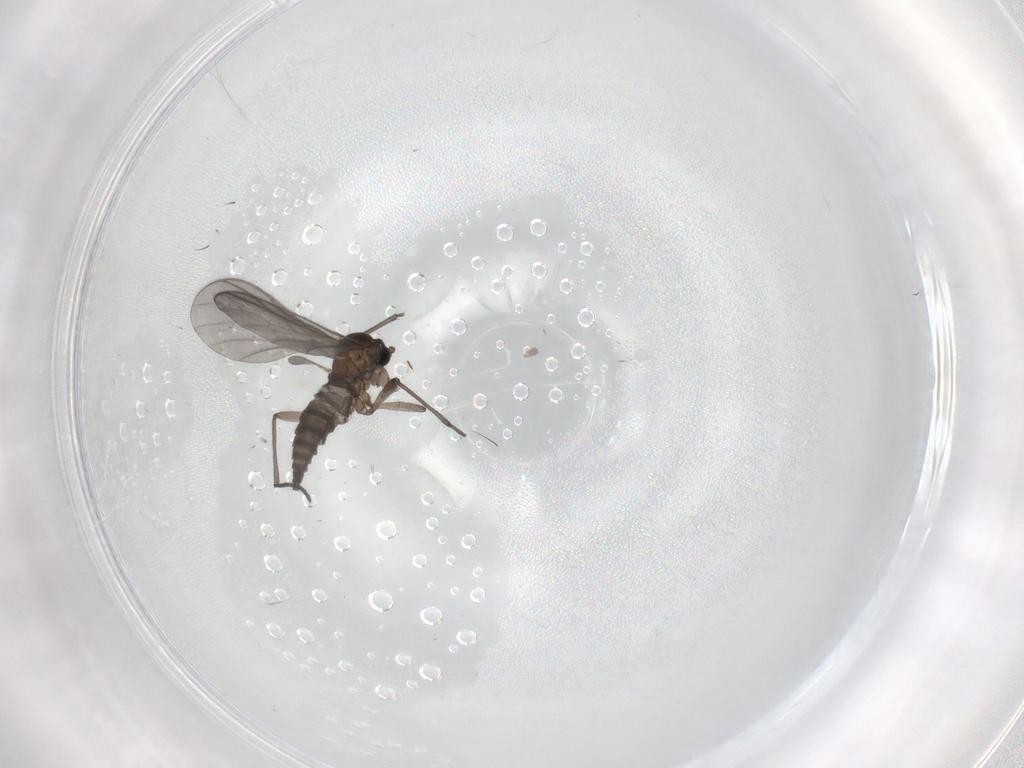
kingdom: Animalia
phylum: Arthropoda
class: Insecta
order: Diptera
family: Sciaridae
